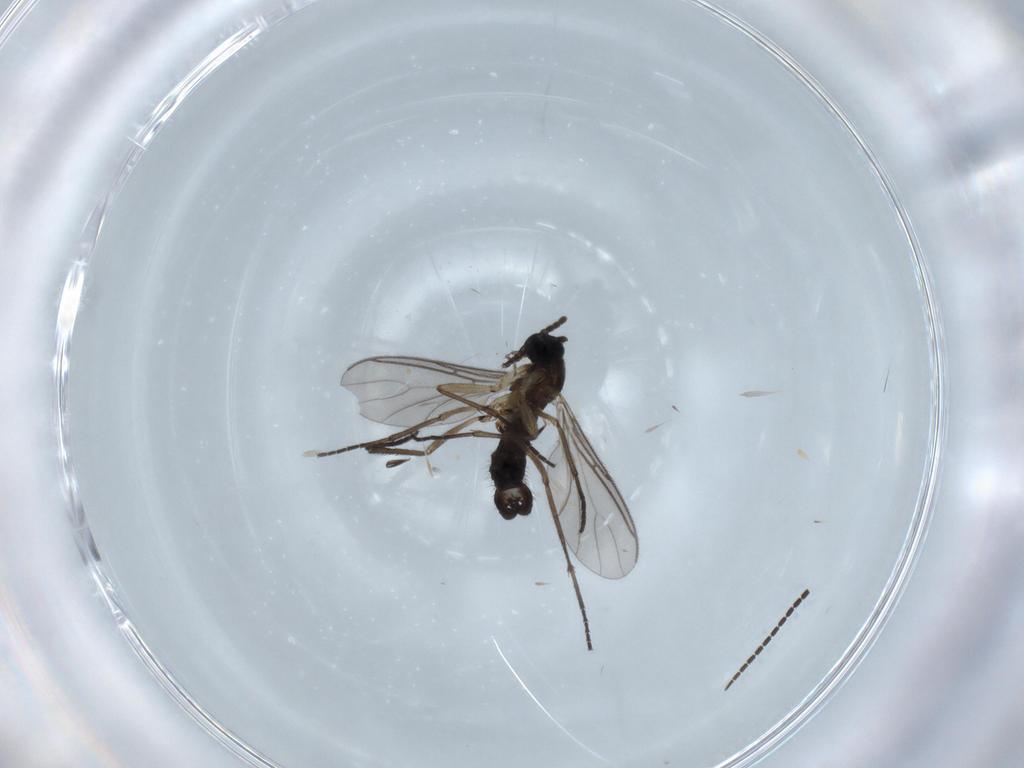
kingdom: Animalia
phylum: Arthropoda
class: Insecta
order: Diptera
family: Sciaridae
